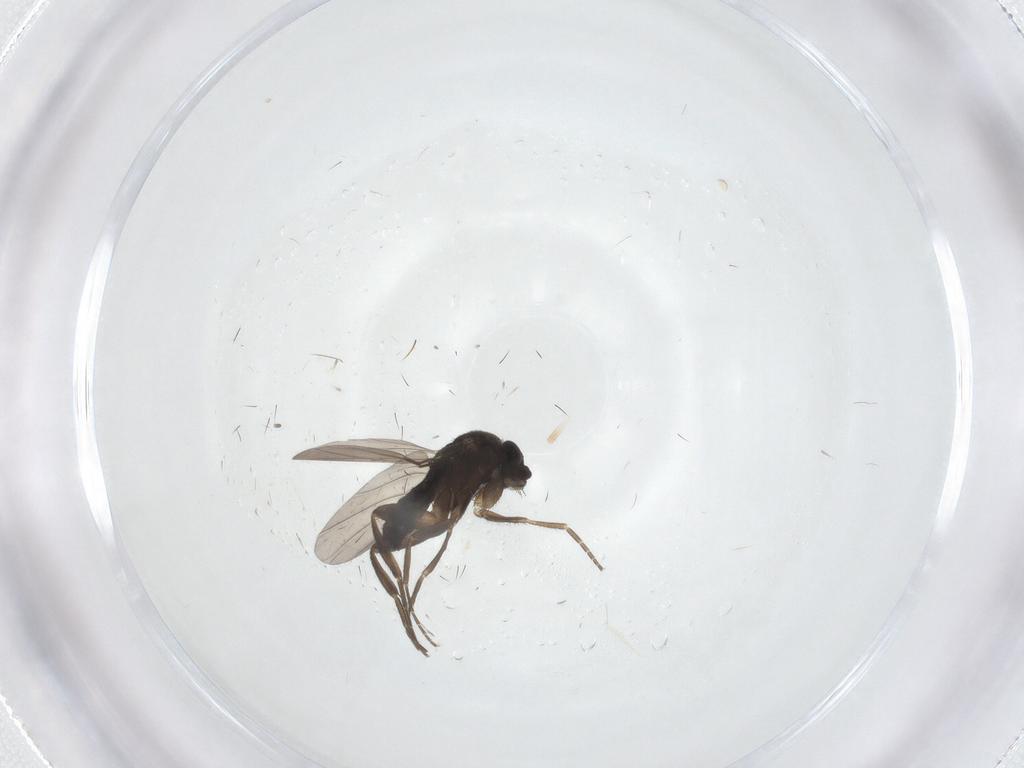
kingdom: Animalia
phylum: Arthropoda
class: Insecta
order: Diptera
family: Phoridae
